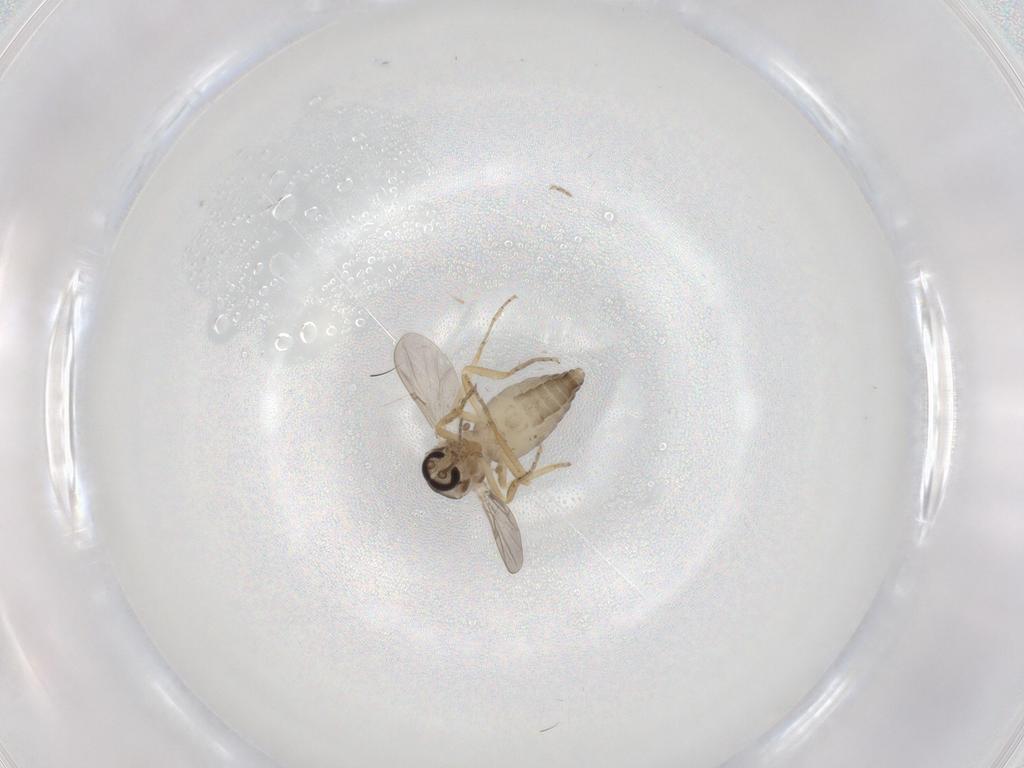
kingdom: Animalia
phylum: Arthropoda
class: Insecta
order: Diptera
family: Ceratopogonidae
